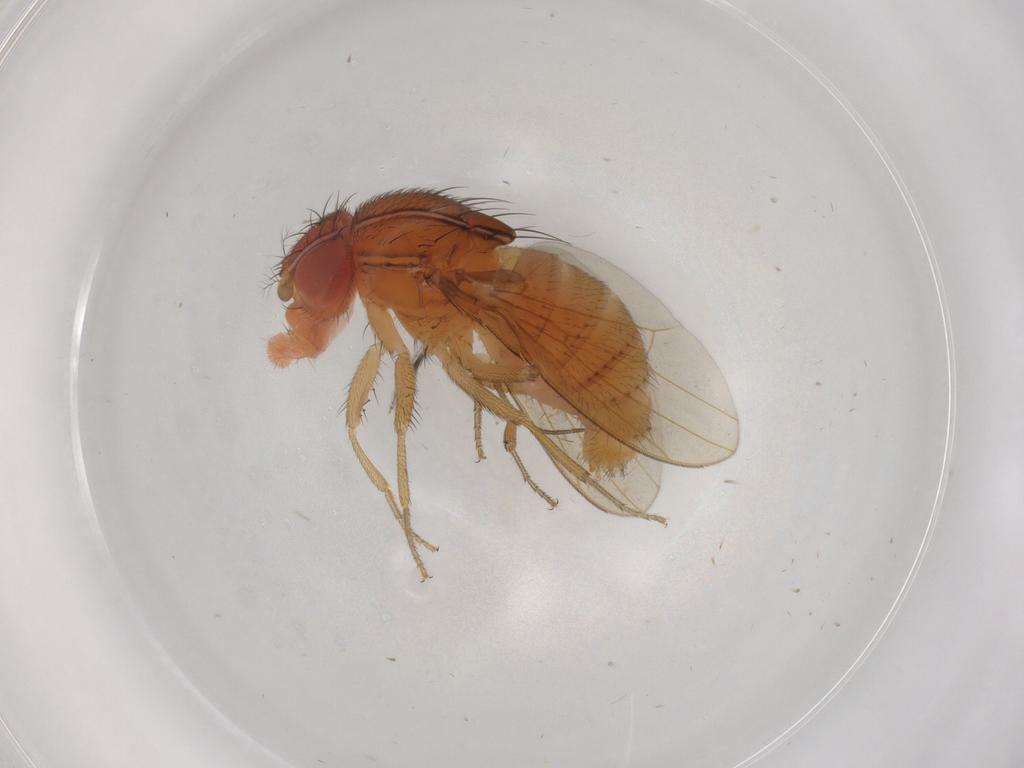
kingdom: Animalia
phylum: Arthropoda
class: Insecta
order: Diptera
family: Drosophilidae
